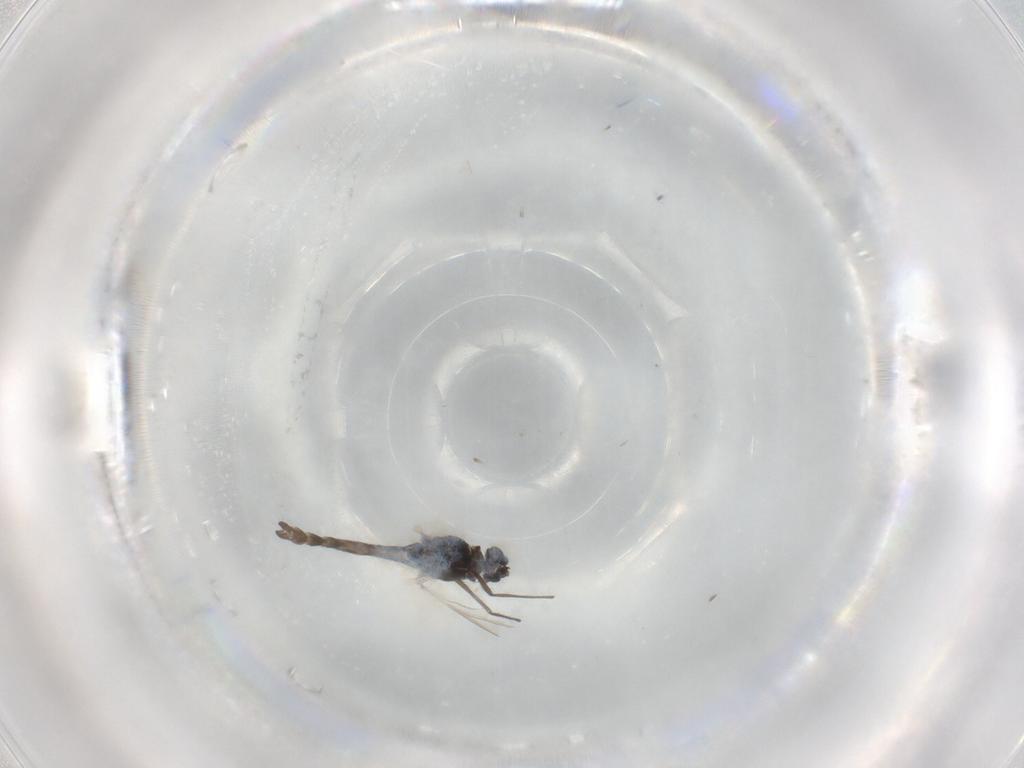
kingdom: Animalia
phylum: Arthropoda
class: Insecta
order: Diptera
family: Chironomidae
